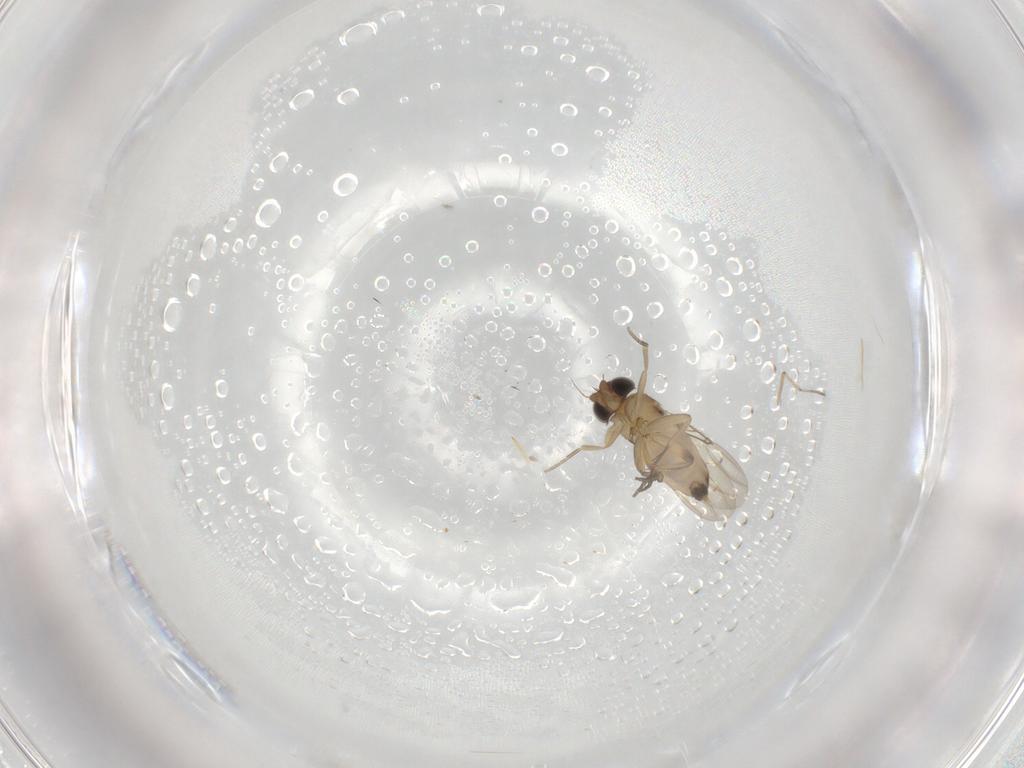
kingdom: Animalia
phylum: Arthropoda
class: Insecta
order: Diptera
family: Phoridae
